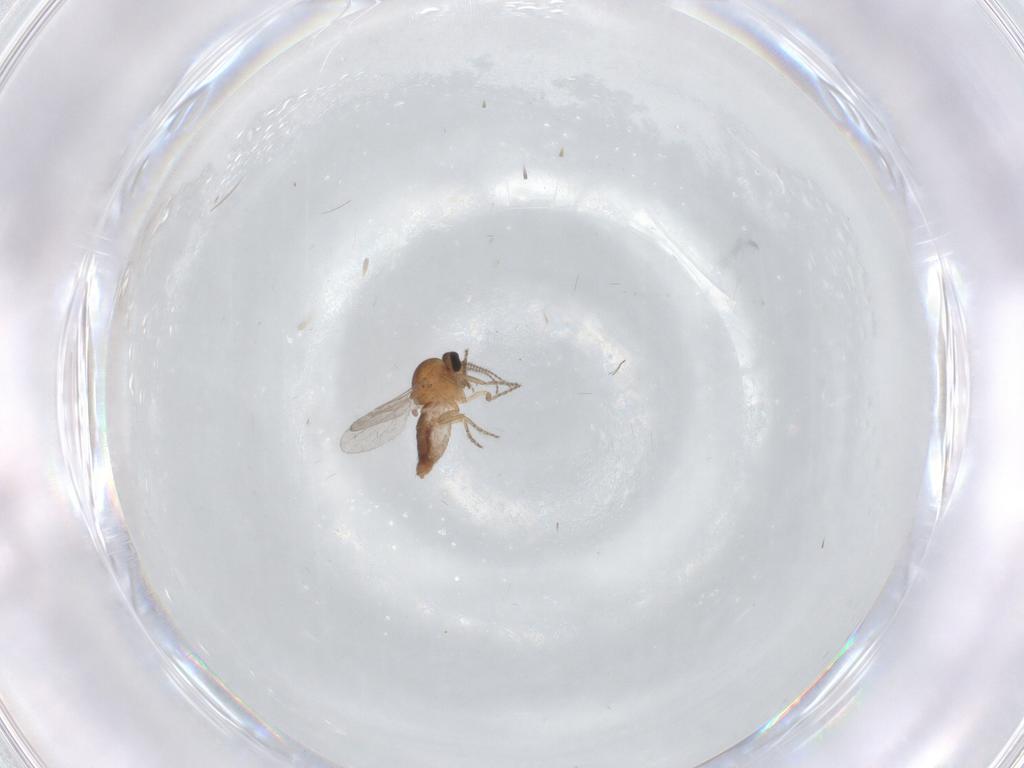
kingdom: Animalia
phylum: Arthropoda
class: Insecta
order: Diptera
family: Ceratopogonidae
